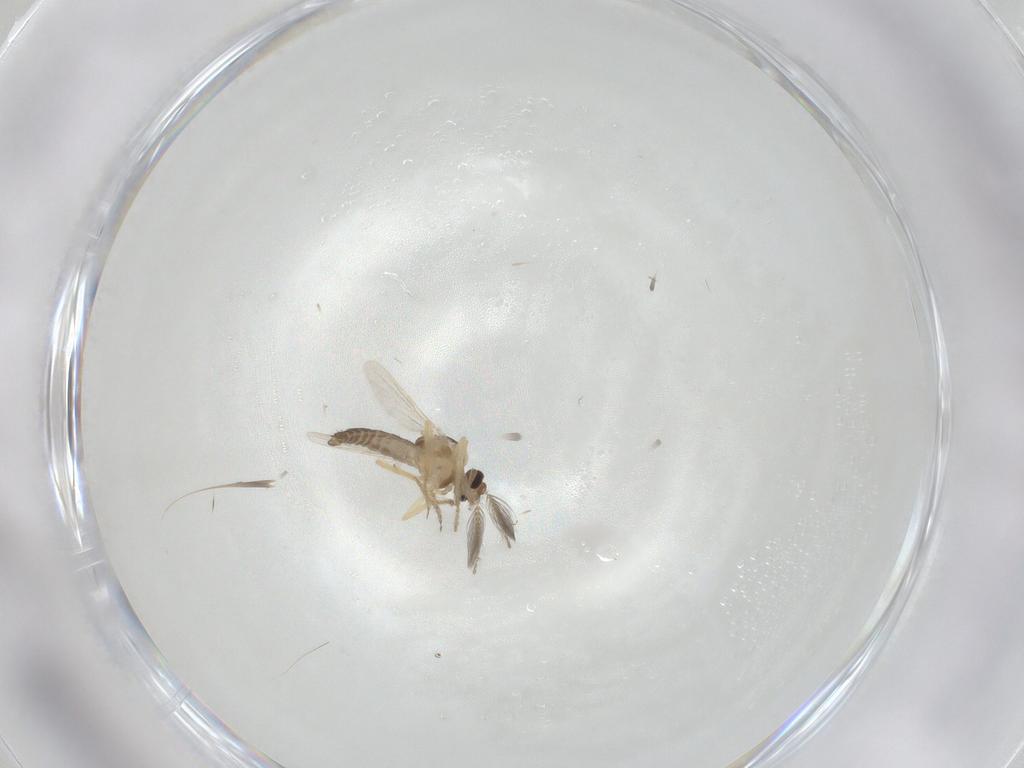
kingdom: Animalia
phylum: Arthropoda
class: Insecta
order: Diptera
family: Ceratopogonidae
